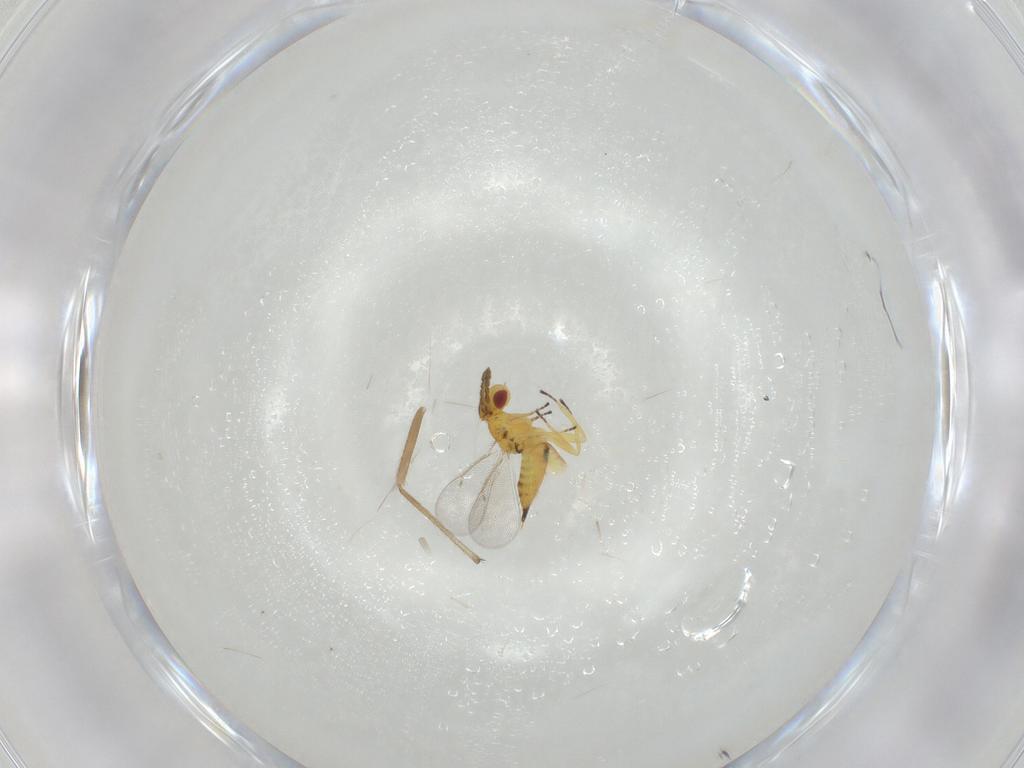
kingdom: Animalia
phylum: Arthropoda
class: Insecta
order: Hymenoptera
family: Eulophidae
